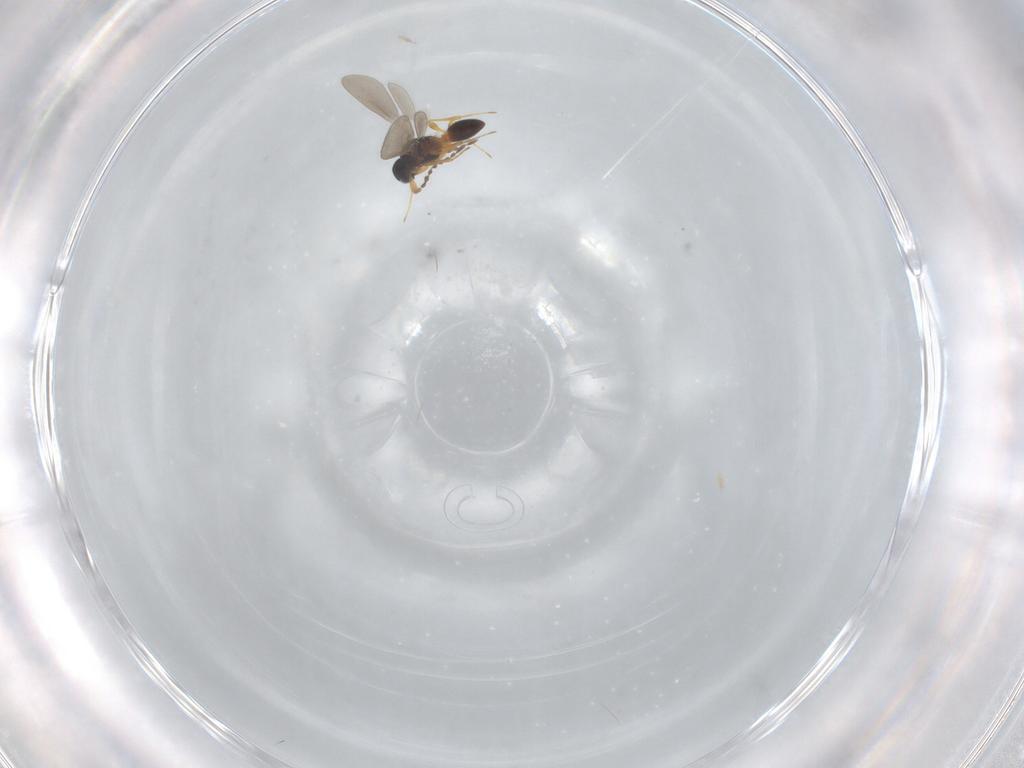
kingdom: Animalia
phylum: Arthropoda
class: Insecta
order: Hymenoptera
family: Platygastridae
